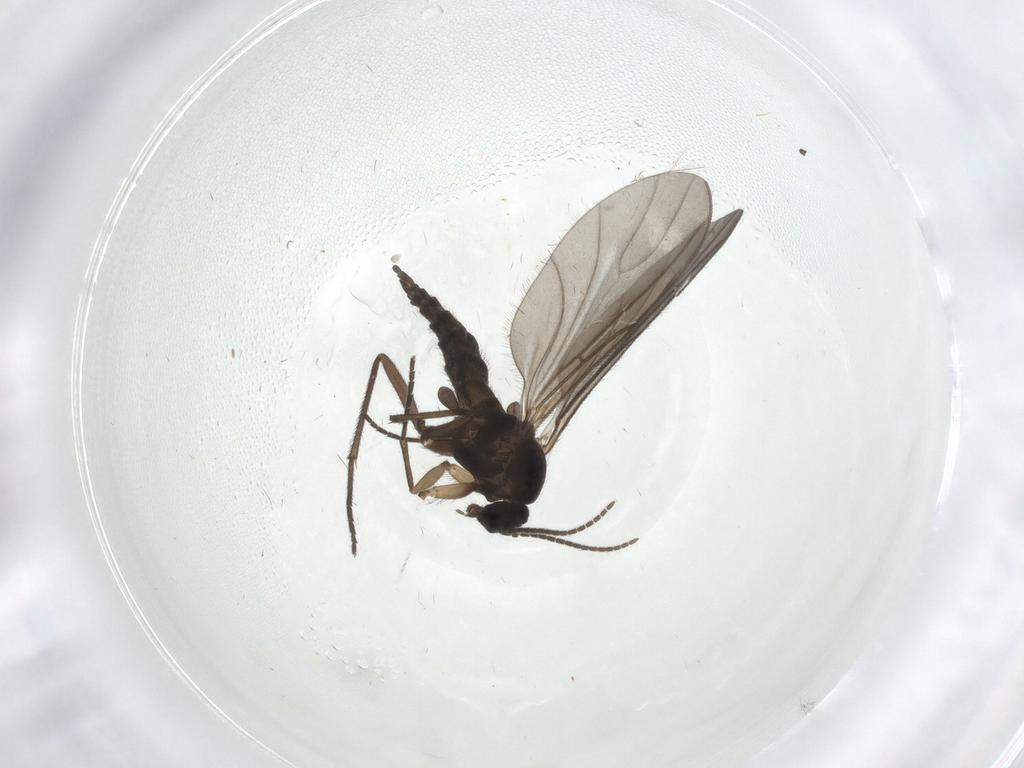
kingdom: Animalia
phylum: Arthropoda
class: Insecta
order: Diptera
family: Sciaridae
